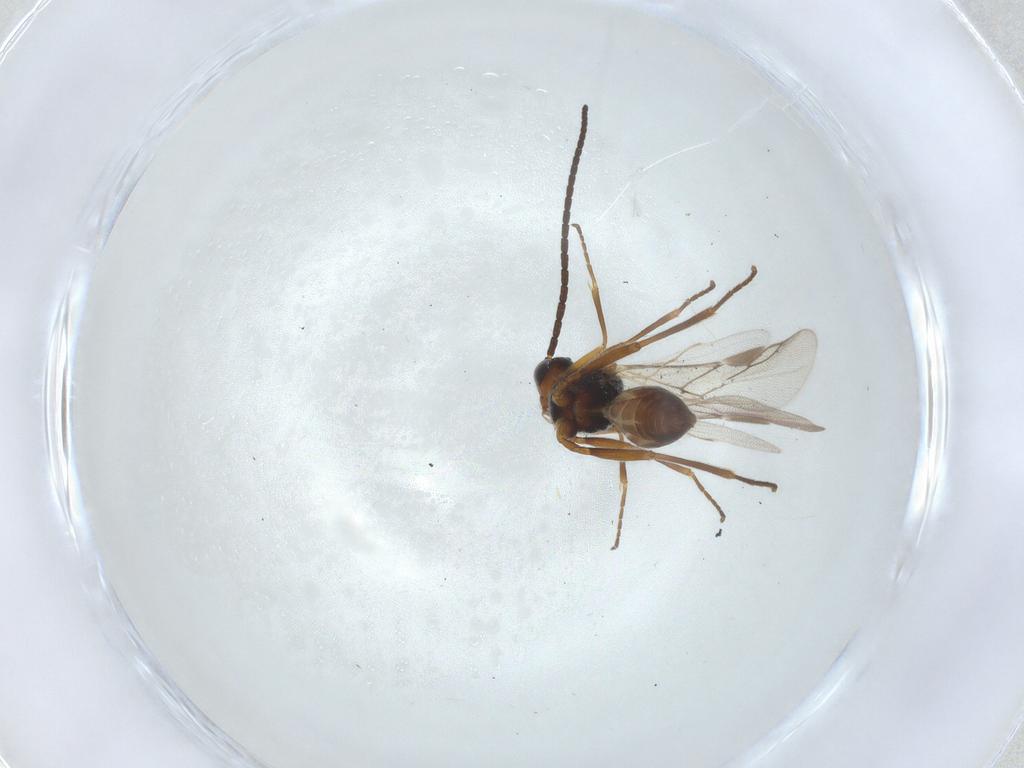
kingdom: Animalia
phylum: Arthropoda
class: Insecta
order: Hymenoptera
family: Braconidae
